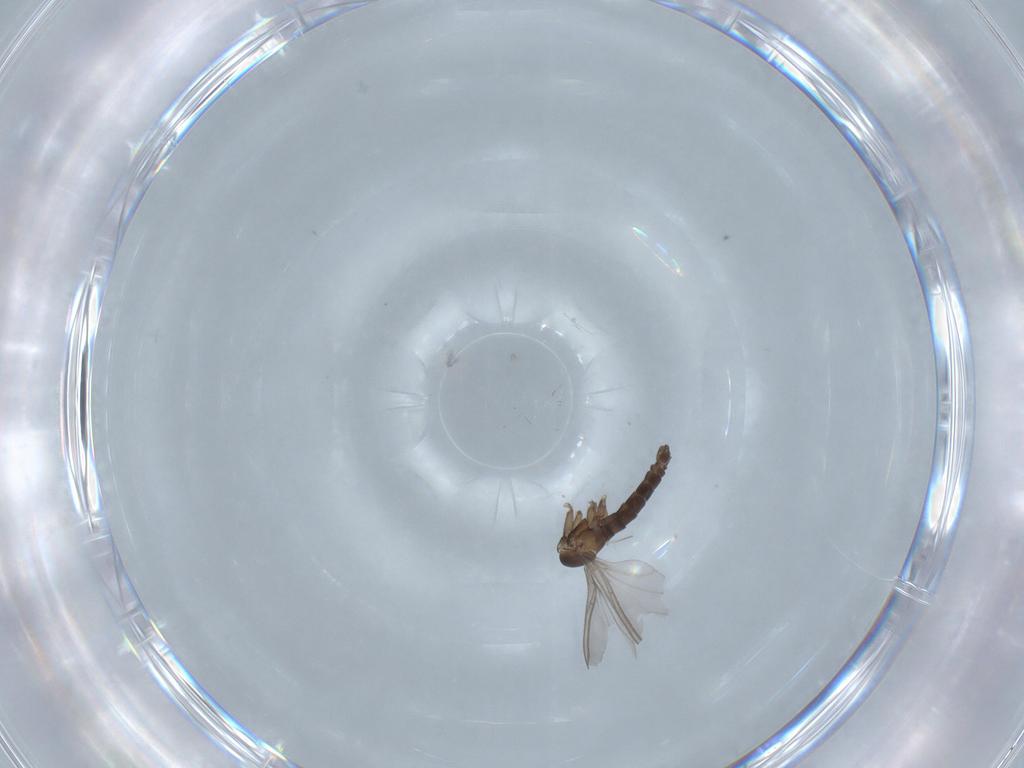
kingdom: Animalia
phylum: Arthropoda
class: Insecta
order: Diptera
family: Sciaridae
